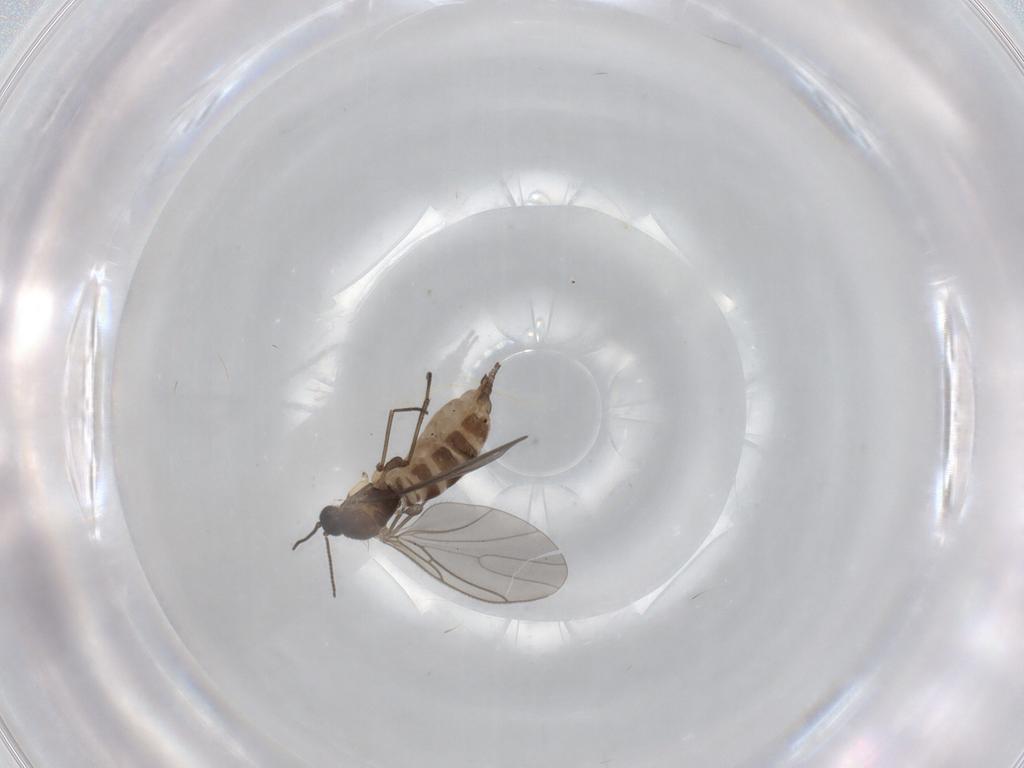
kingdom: Animalia
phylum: Arthropoda
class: Insecta
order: Diptera
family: Sciaridae
